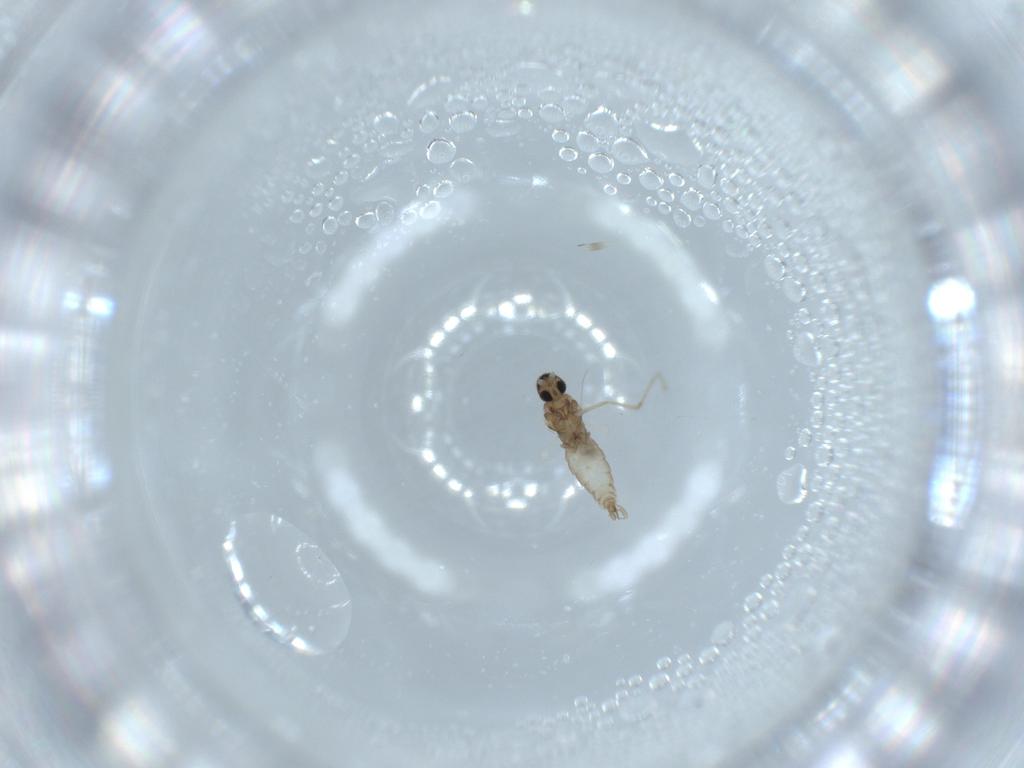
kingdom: Animalia
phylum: Arthropoda
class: Insecta
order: Diptera
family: Cecidomyiidae
